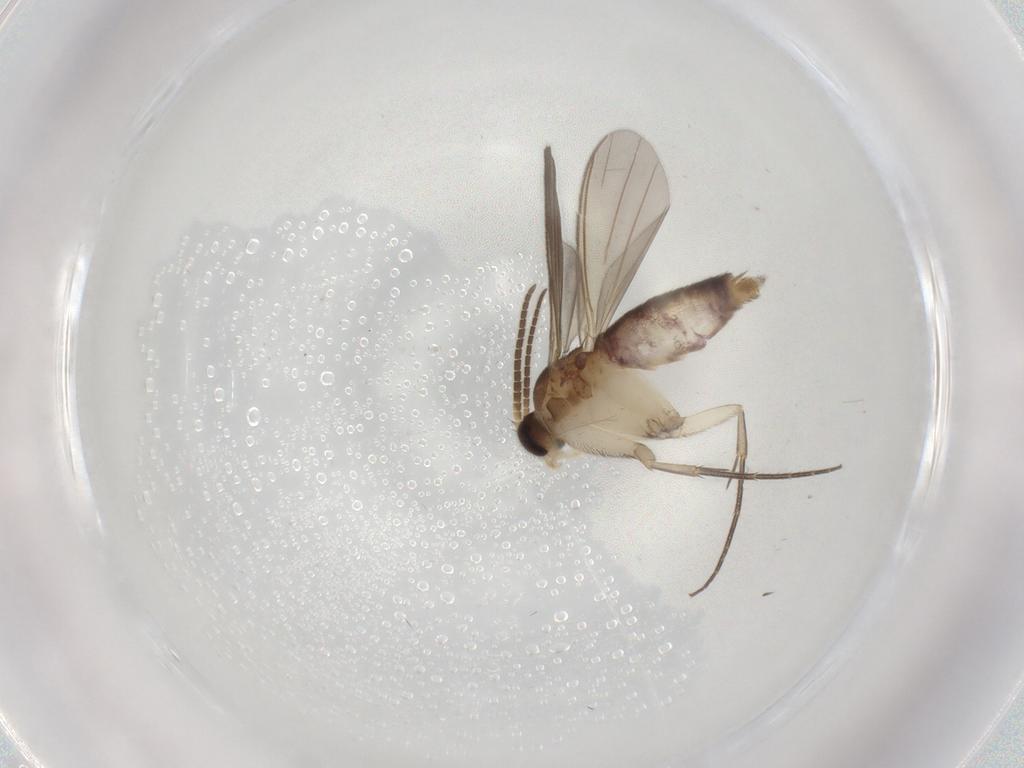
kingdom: Animalia
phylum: Arthropoda
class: Insecta
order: Diptera
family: Mycetophilidae
